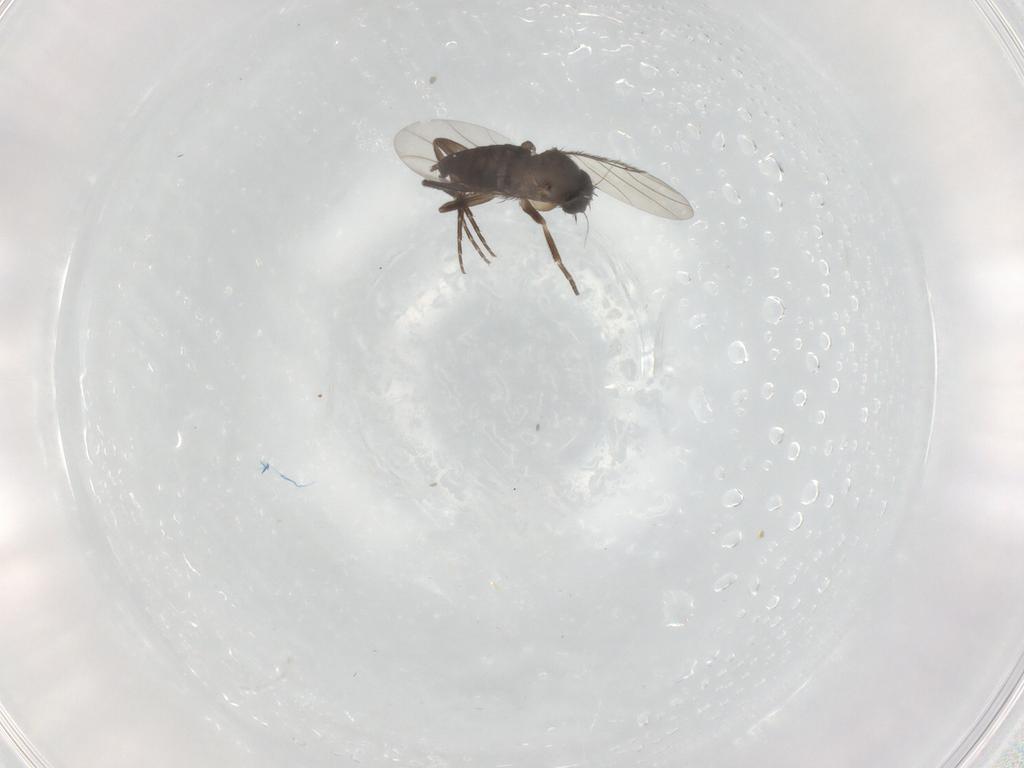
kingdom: Animalia
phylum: Arthropoda
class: Insecta
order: Diptera
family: Phoridae
